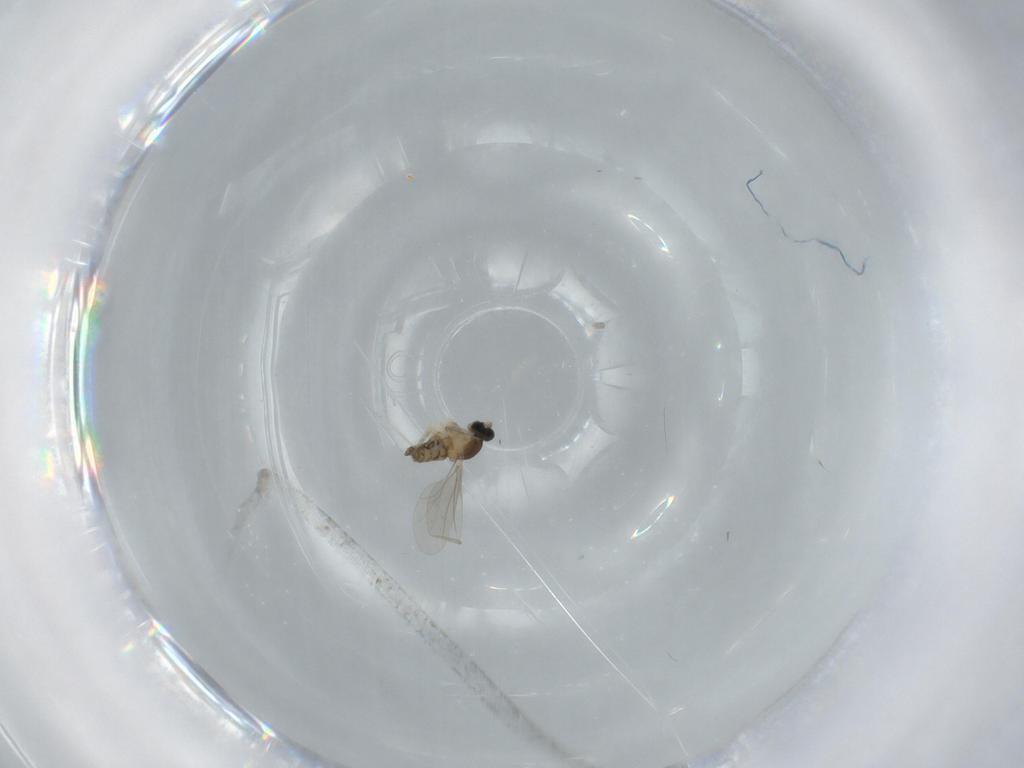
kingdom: Animalia
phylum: Arthropoda
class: Insecta
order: Diptera
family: Cecidomyiidae
